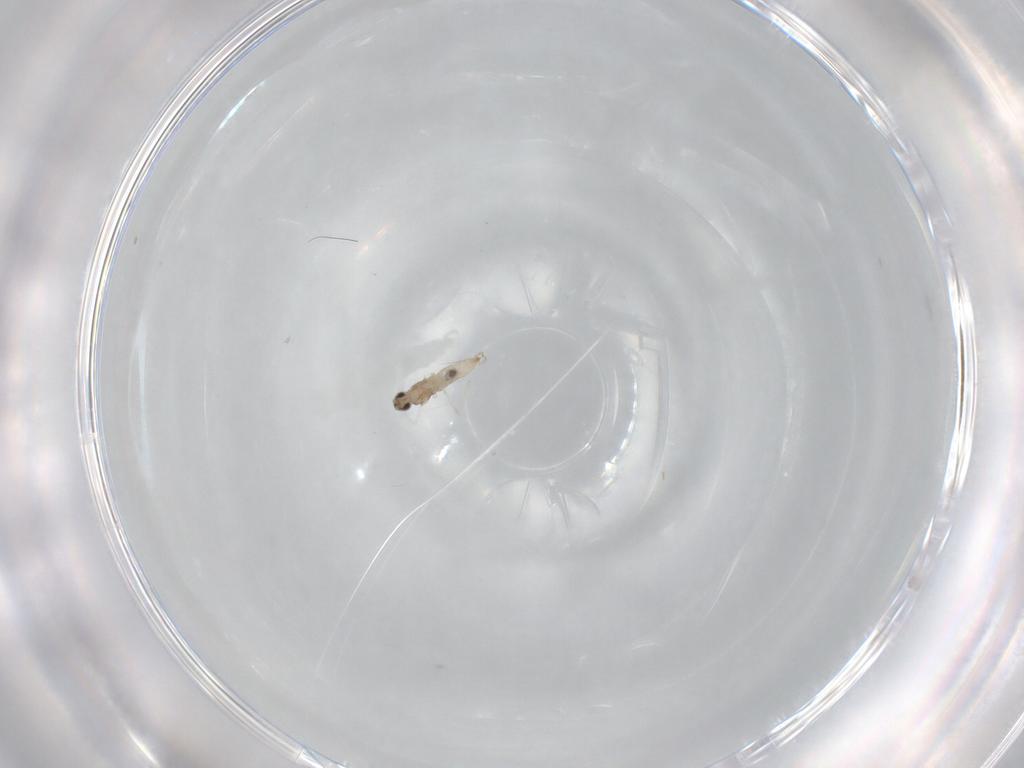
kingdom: Animalia
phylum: Arthropoda
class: Insecta
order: Diptera
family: Cecidomyiidae
